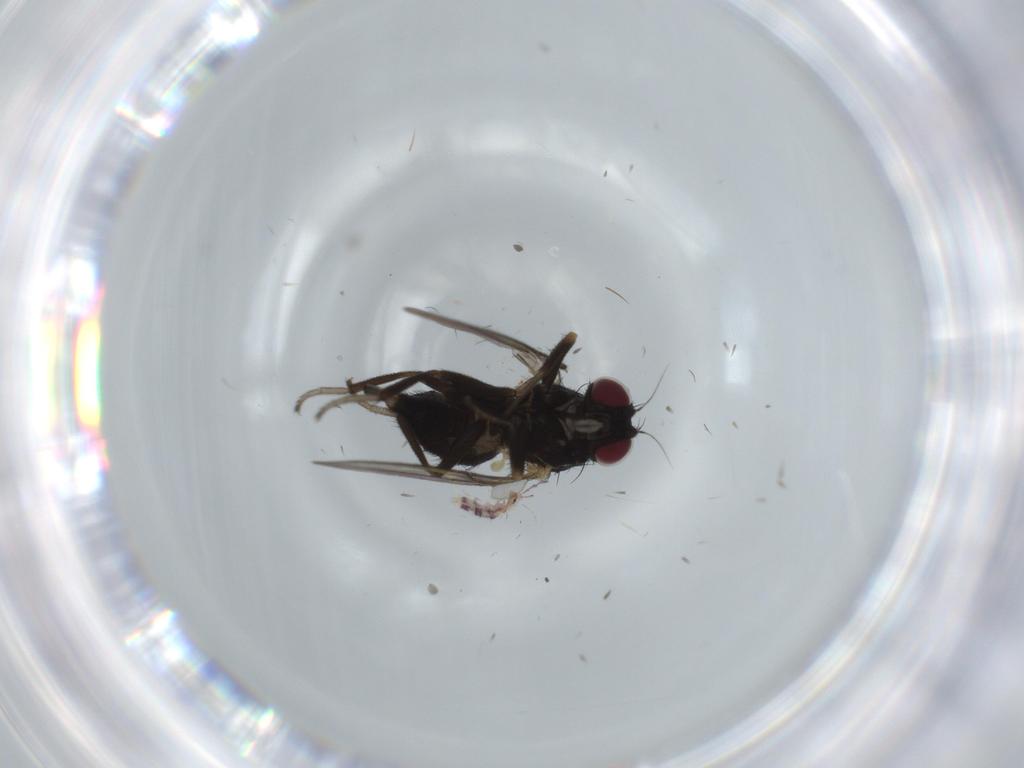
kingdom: Animalia
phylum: Arthropoda
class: Insecta
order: Diptera
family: Agromyzidae
